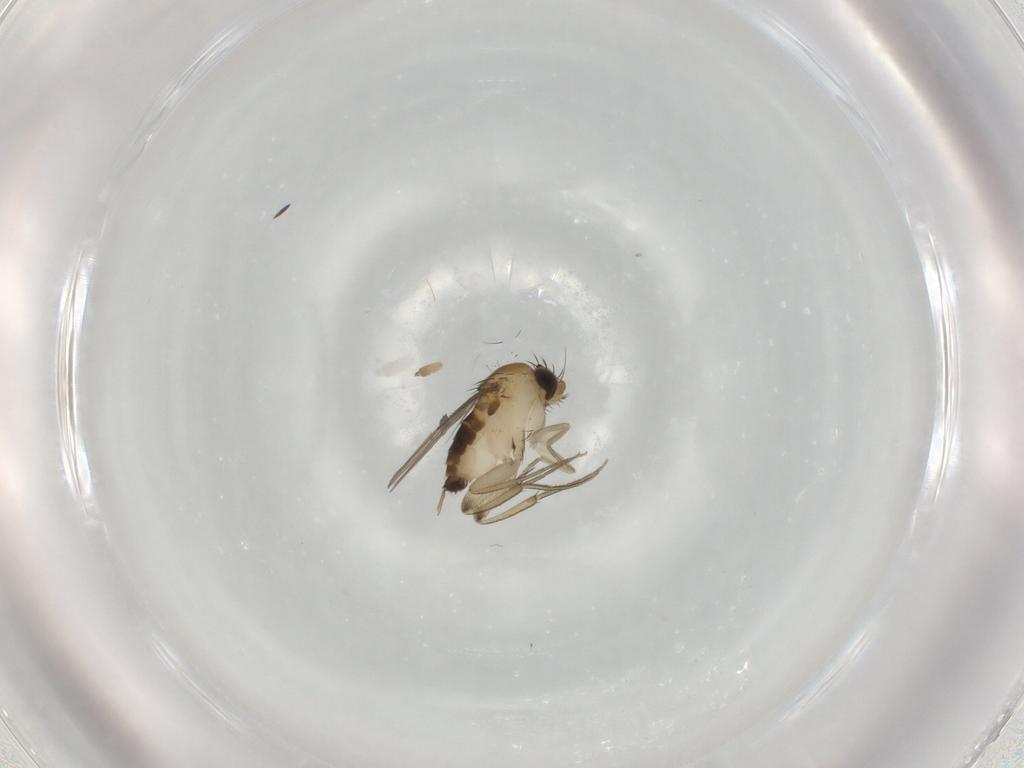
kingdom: Animalia
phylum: Arthropoda
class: Insecta
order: Diptera
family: Phoridae
